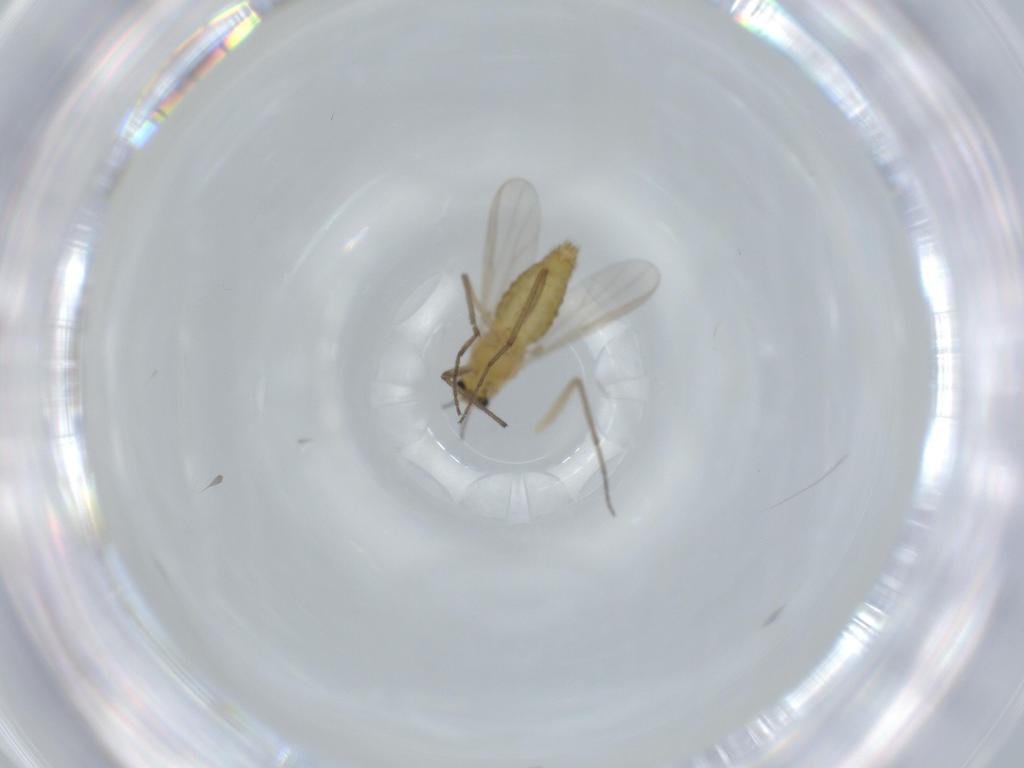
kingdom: Animalia
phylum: Arthropoda
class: Insecta
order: Diptera
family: Chironomidae
